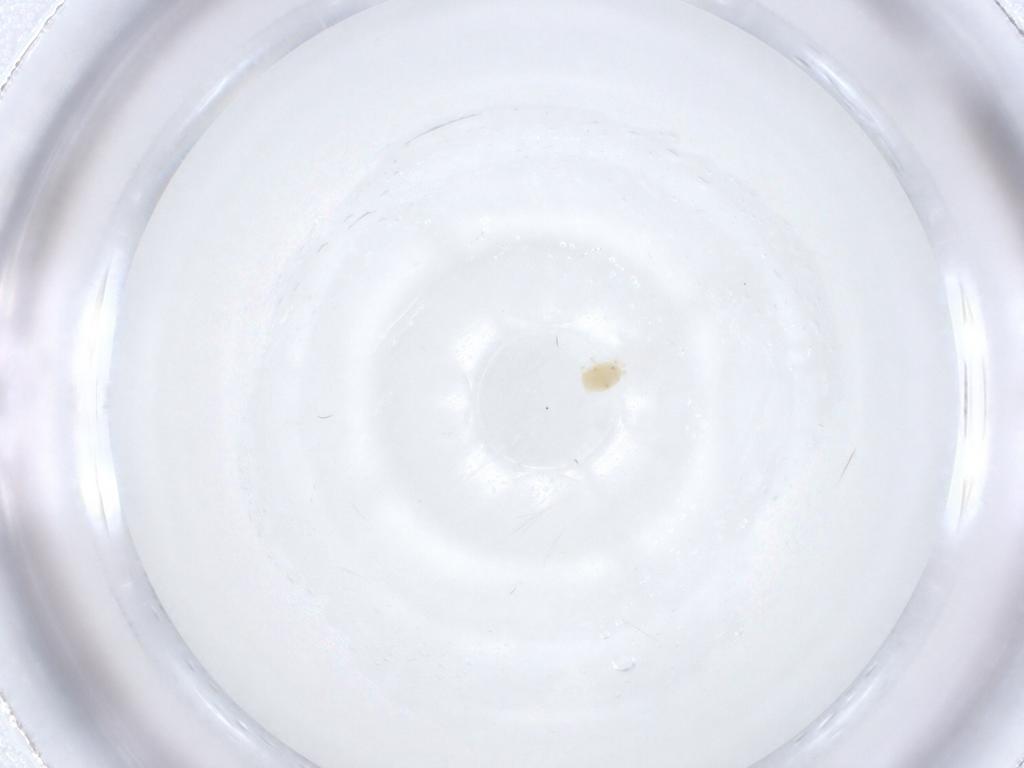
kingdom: Animalia
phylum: Arthropoda
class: Arachnida
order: Trombidiformes
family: Tetranychidae
